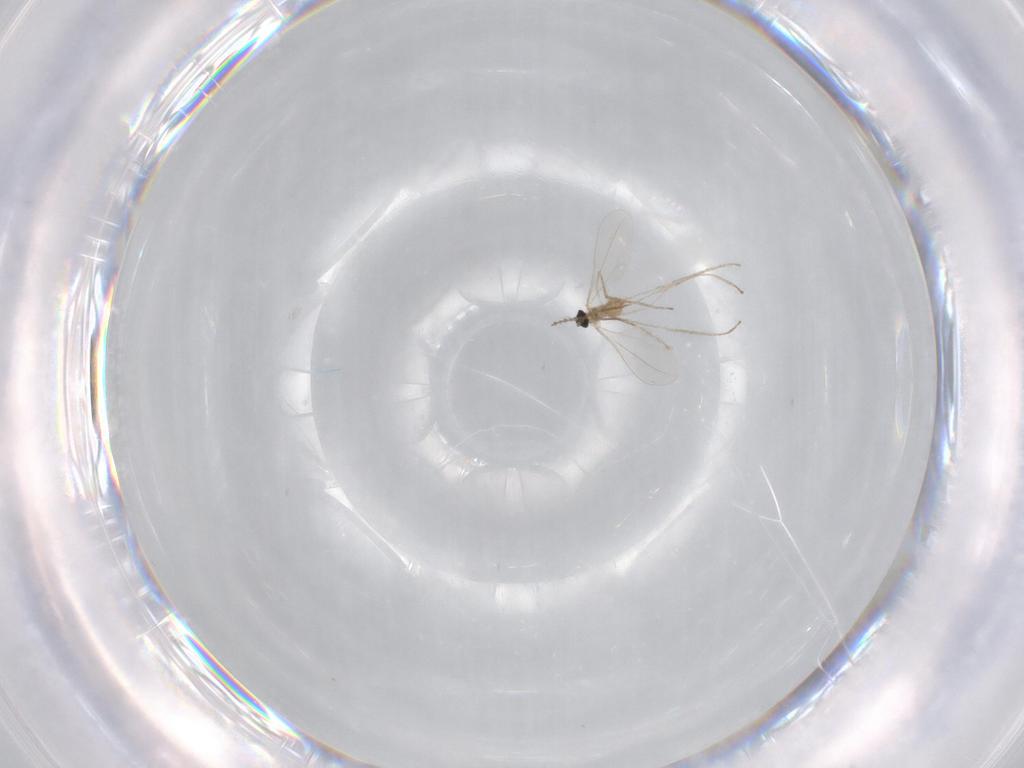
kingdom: Animalia
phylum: Arthropoda
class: Insecta
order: Diptera
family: Cecidomyiidae
